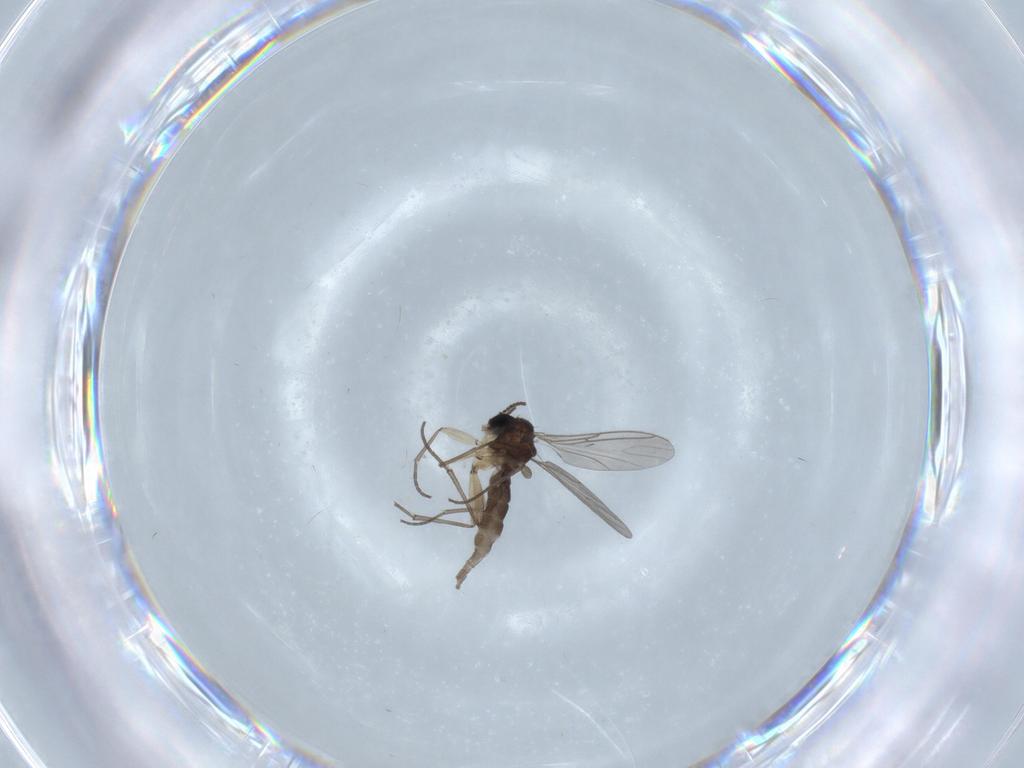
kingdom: Animalia
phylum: Arthropoda
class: Insecta
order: Diptera
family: Sciaridae
